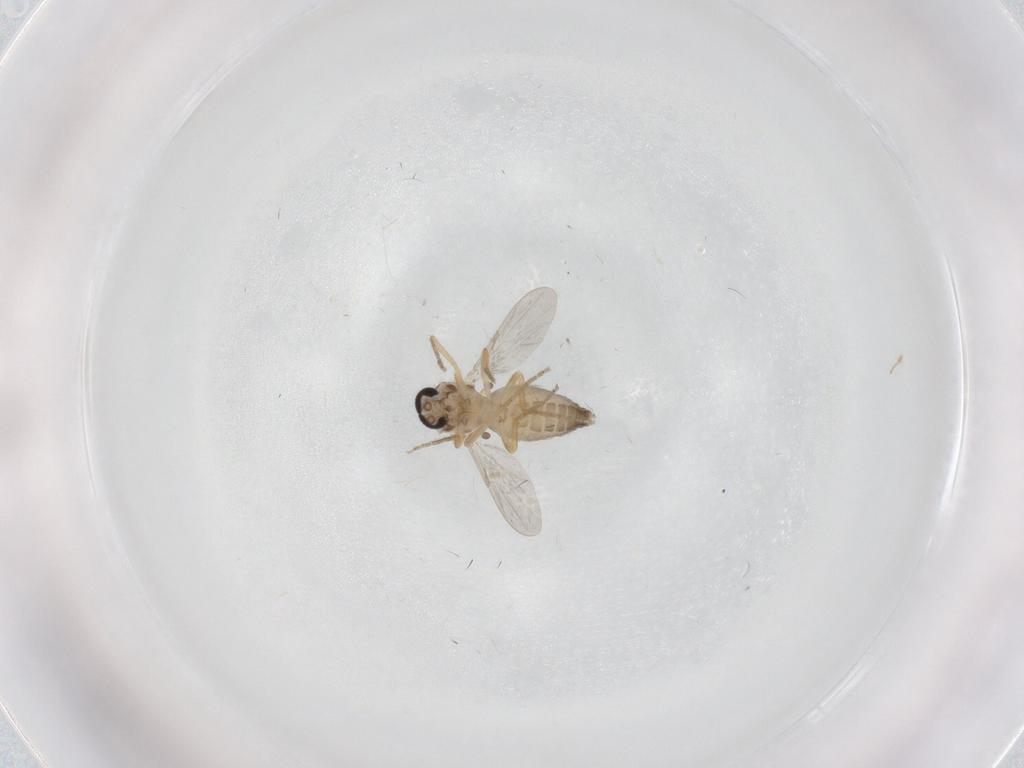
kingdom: Animalia
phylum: Arthropoda
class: Insecta
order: Diptera
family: Ceratopogonidae
